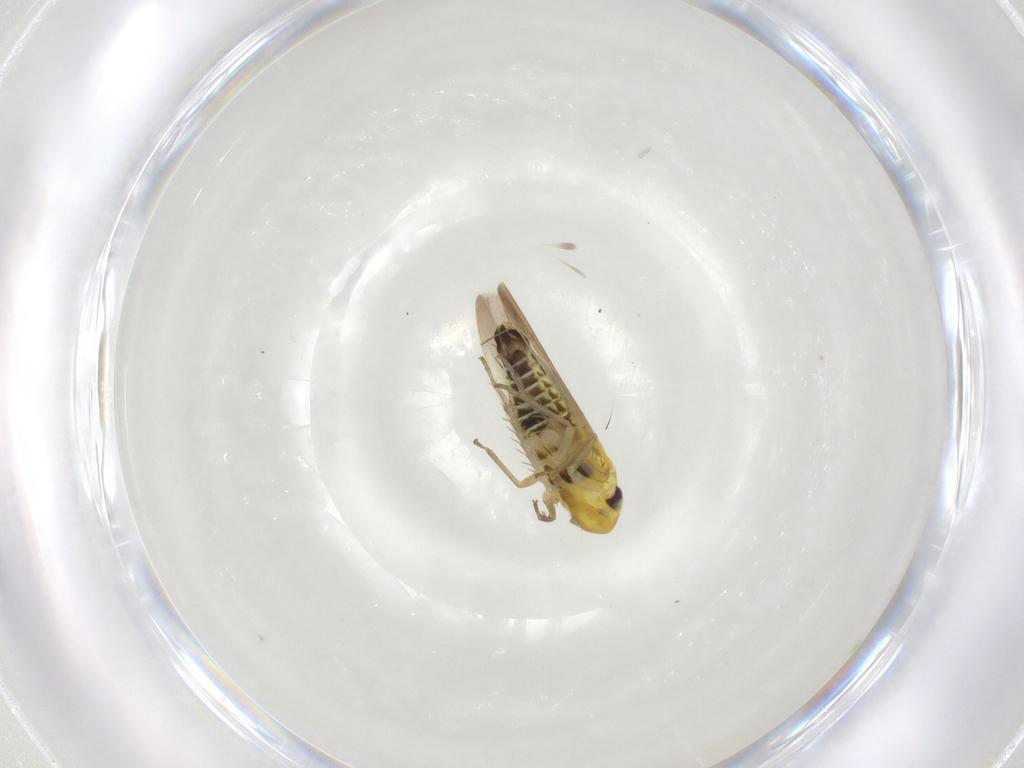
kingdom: Animalia
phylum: Arthropoda
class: Insecta
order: Hemiptera
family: Cicadellidae
